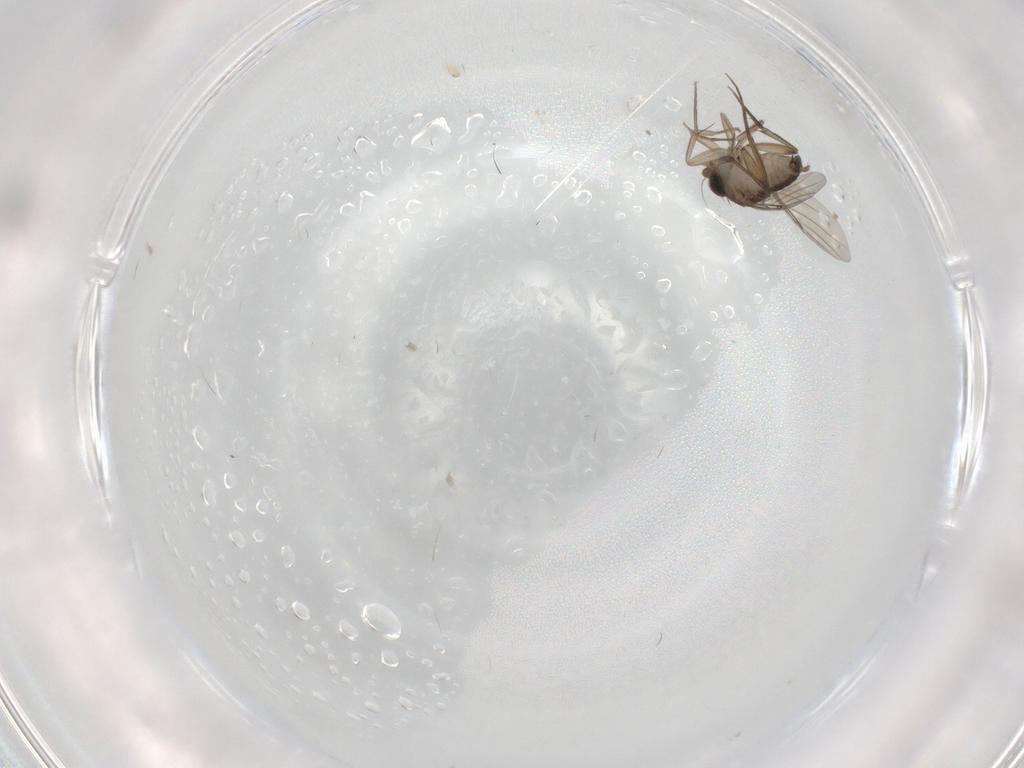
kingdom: Animalia
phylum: Arthropoda
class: Insecta
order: Diptera
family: Phoridae
